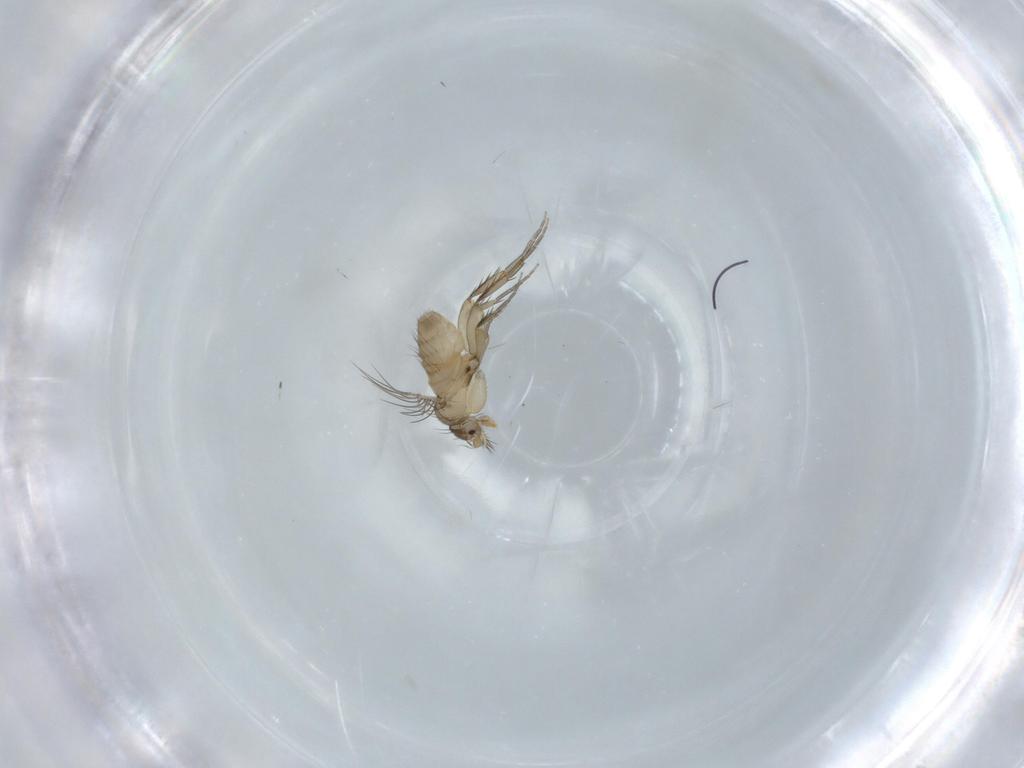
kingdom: Animalia
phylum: Arthropoda
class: Insecta
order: Diptera
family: Phoridae
